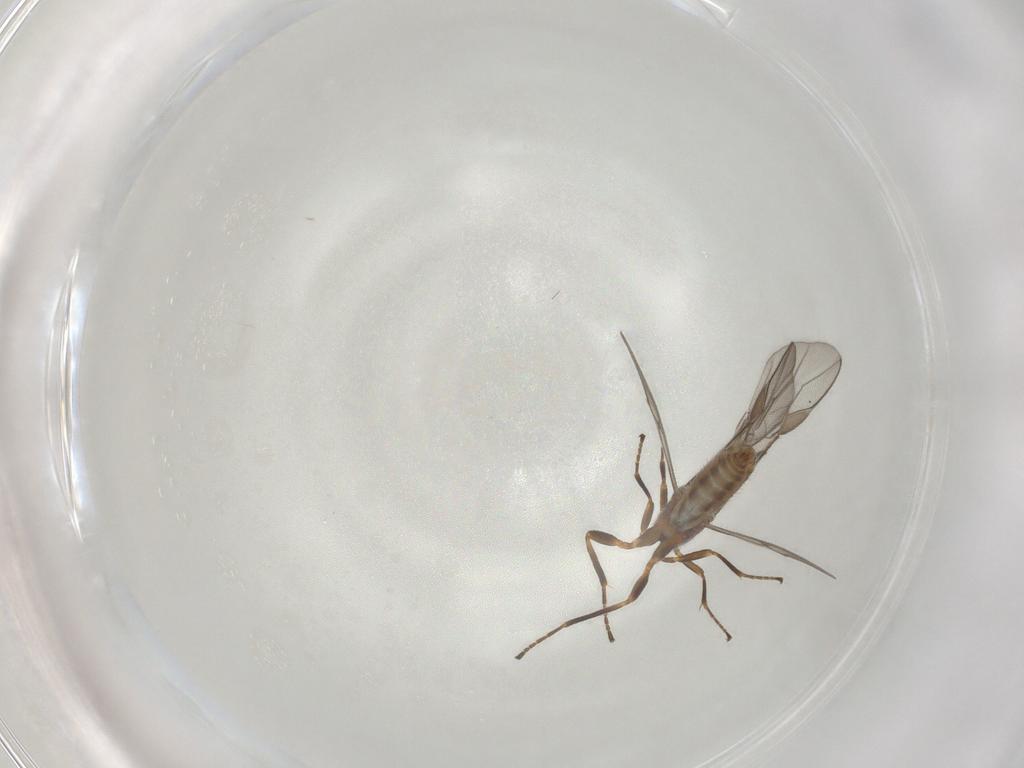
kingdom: Animalia
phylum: Arthropoda
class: Insecta
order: Hymenoptera
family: Braconidae
